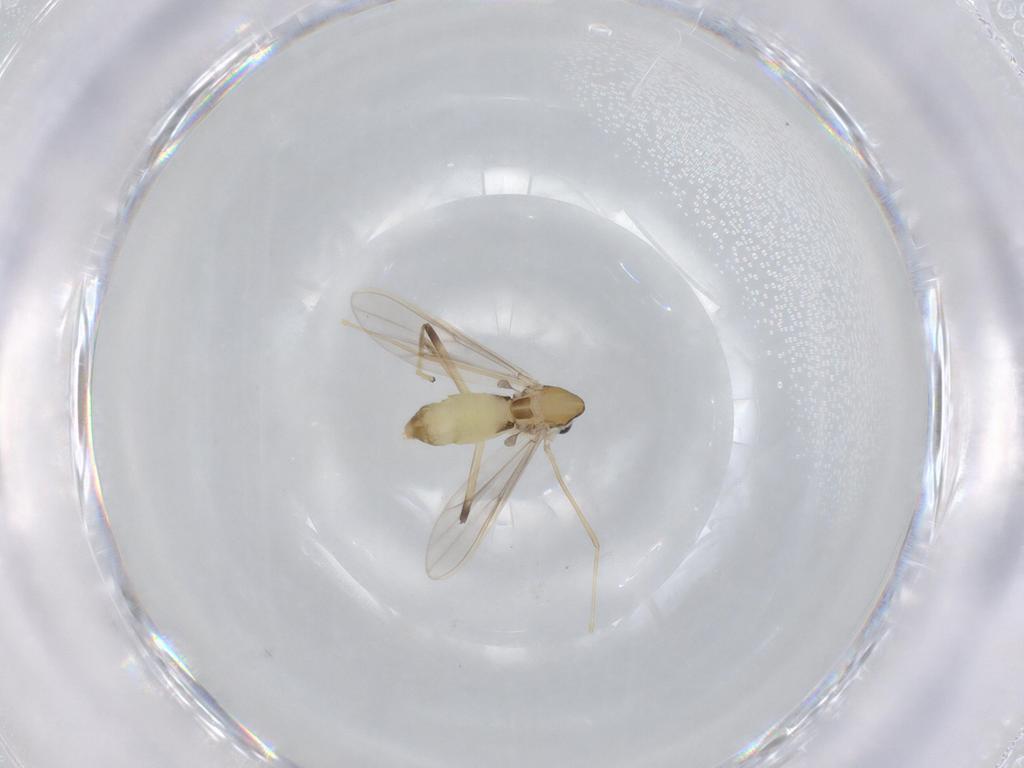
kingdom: Animalia
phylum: Arthropoda
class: Insecta
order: Diptera
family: Chironomidae
